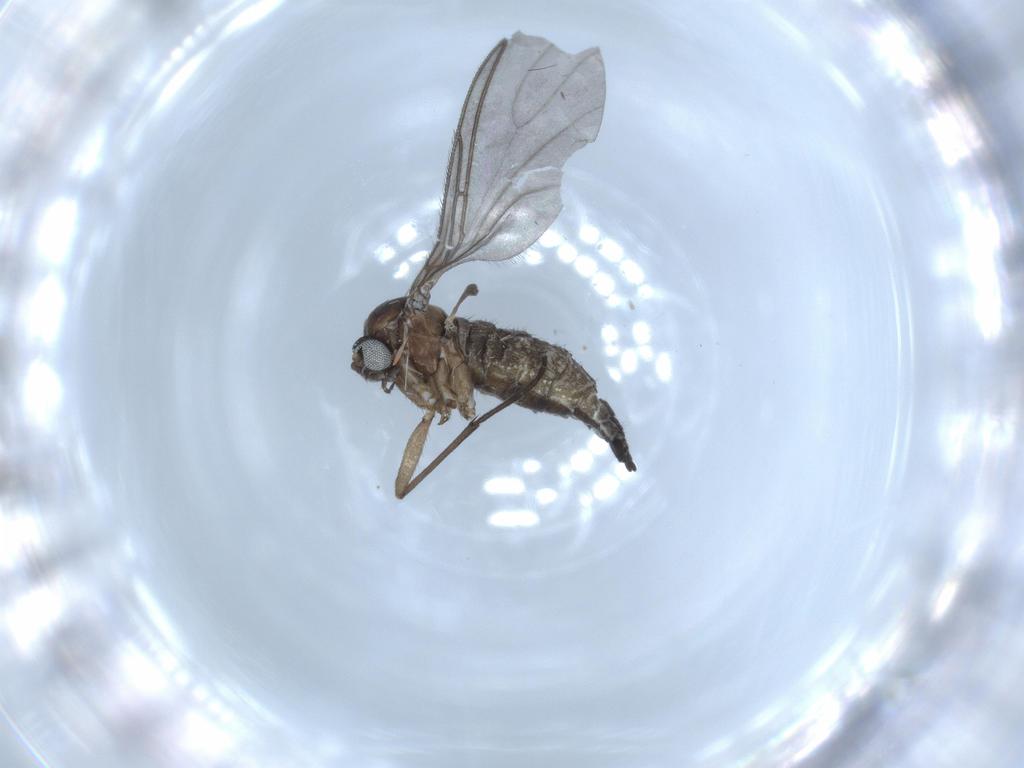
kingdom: Animalia
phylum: Arthropoda
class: Insecta
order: Diptera
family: Sciaridae
